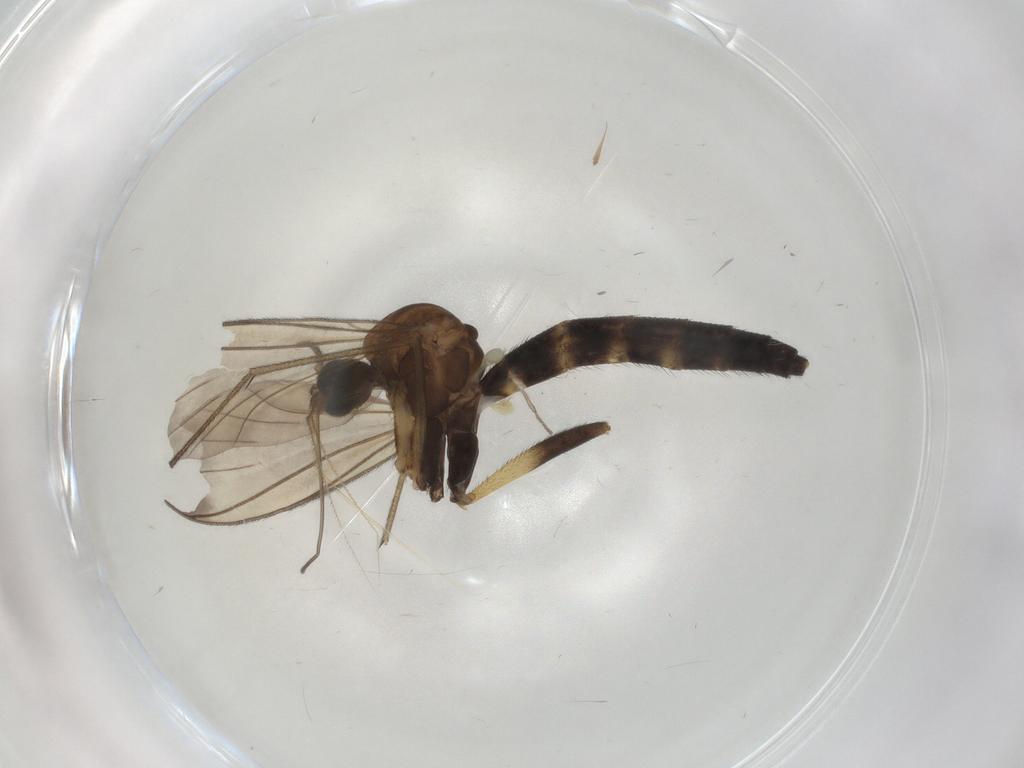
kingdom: Animalia
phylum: Arthropoda
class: Insecta
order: Diptera
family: Keroplatidae
